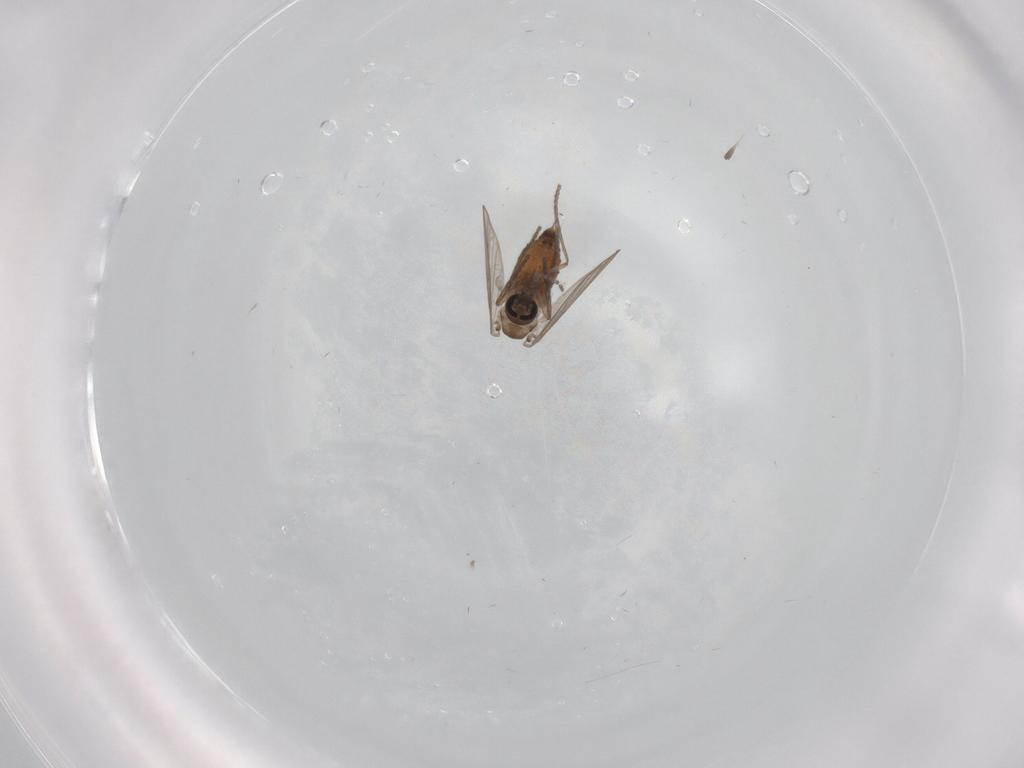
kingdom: Animalia
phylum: Arthropoda
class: Insecta
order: Diptera
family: Cecidomyiidae
